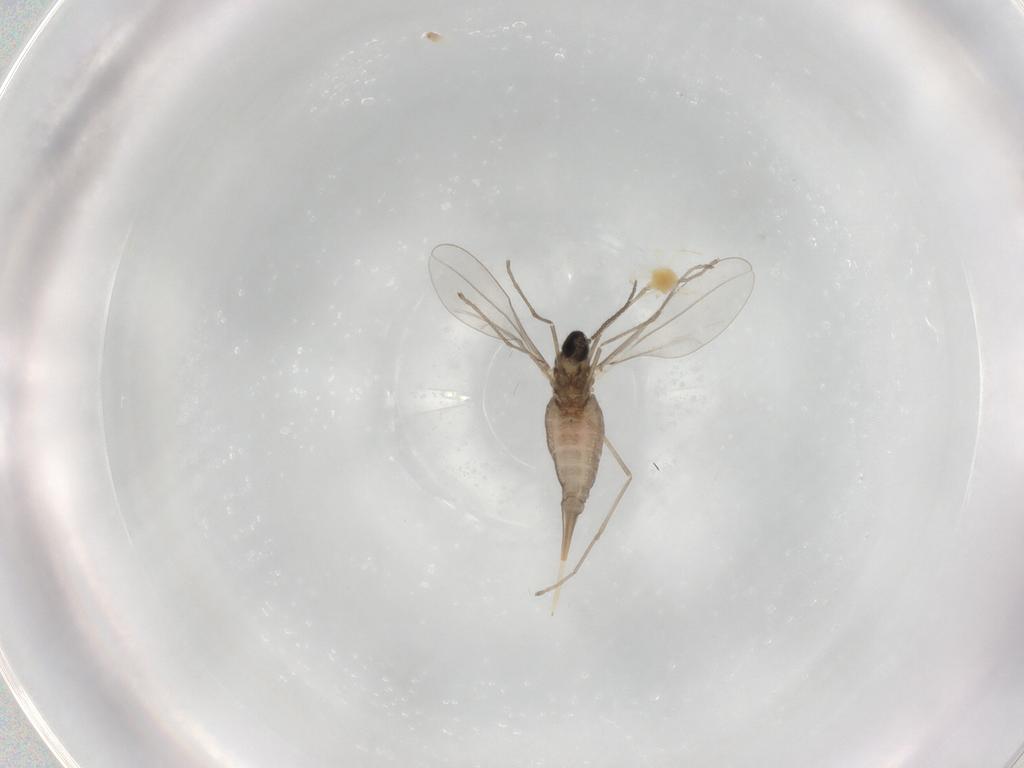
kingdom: Animalia
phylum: Arthropoda
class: Insecta
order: Diptera
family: Cecidomyiidae
